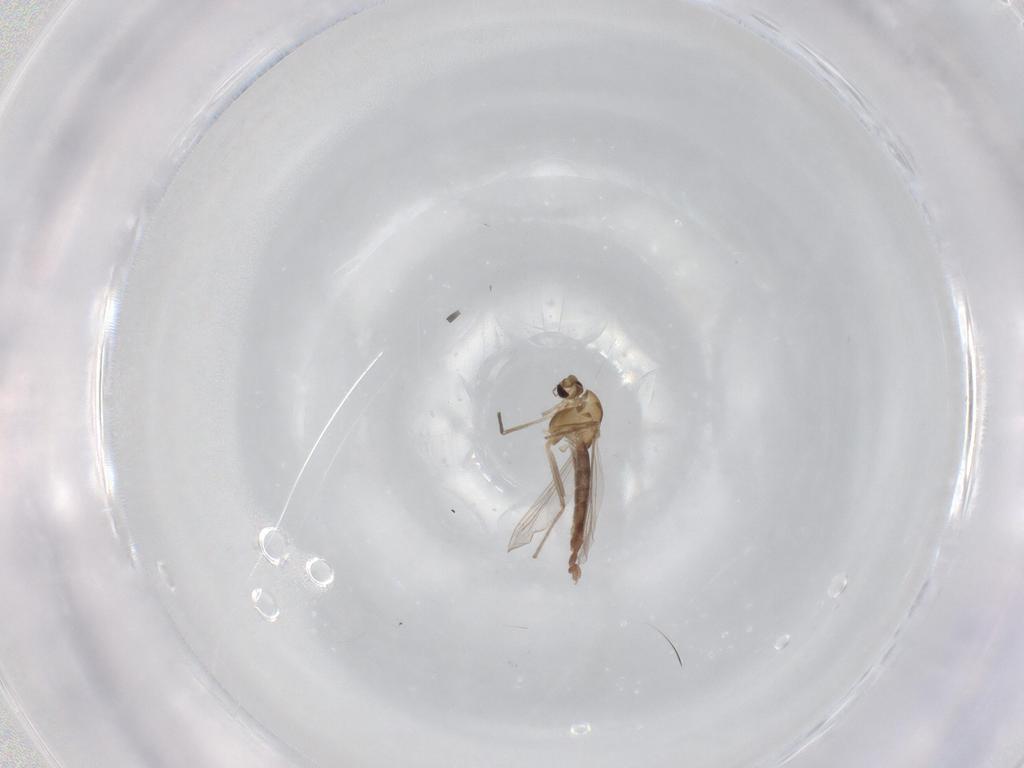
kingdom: Animalia
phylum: Arthropoda
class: Insecta
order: Diptera
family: Chironomidae
